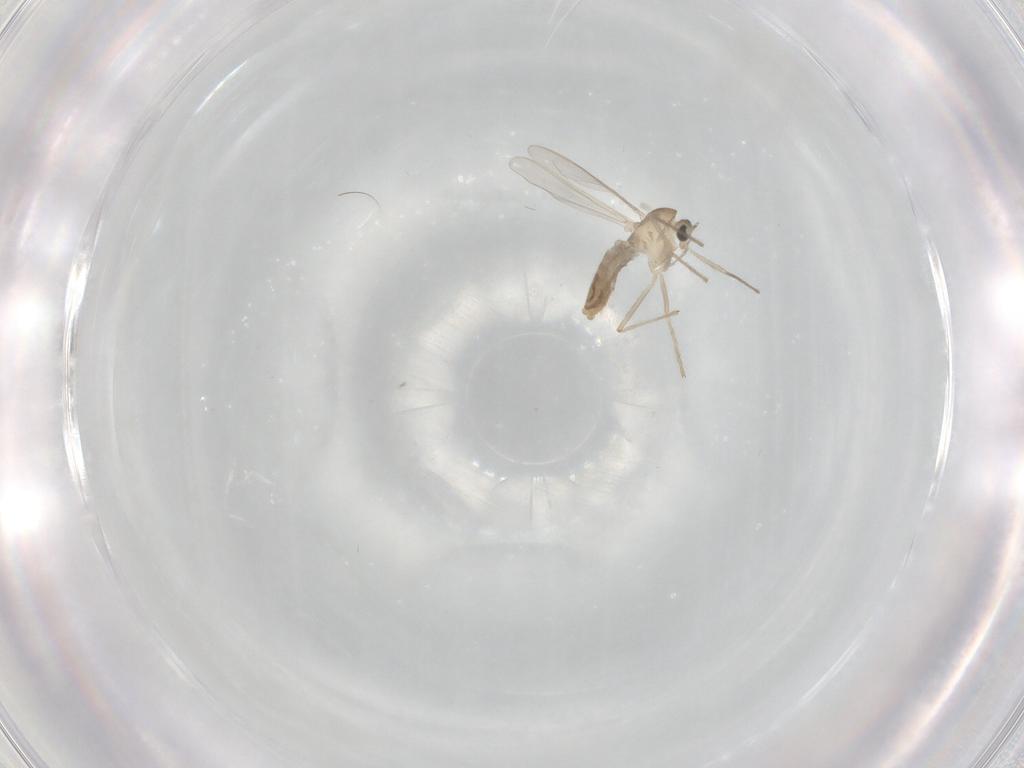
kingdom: Animalia
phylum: Arthropoda
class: Insecta
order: Diptera
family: Chironomidae
